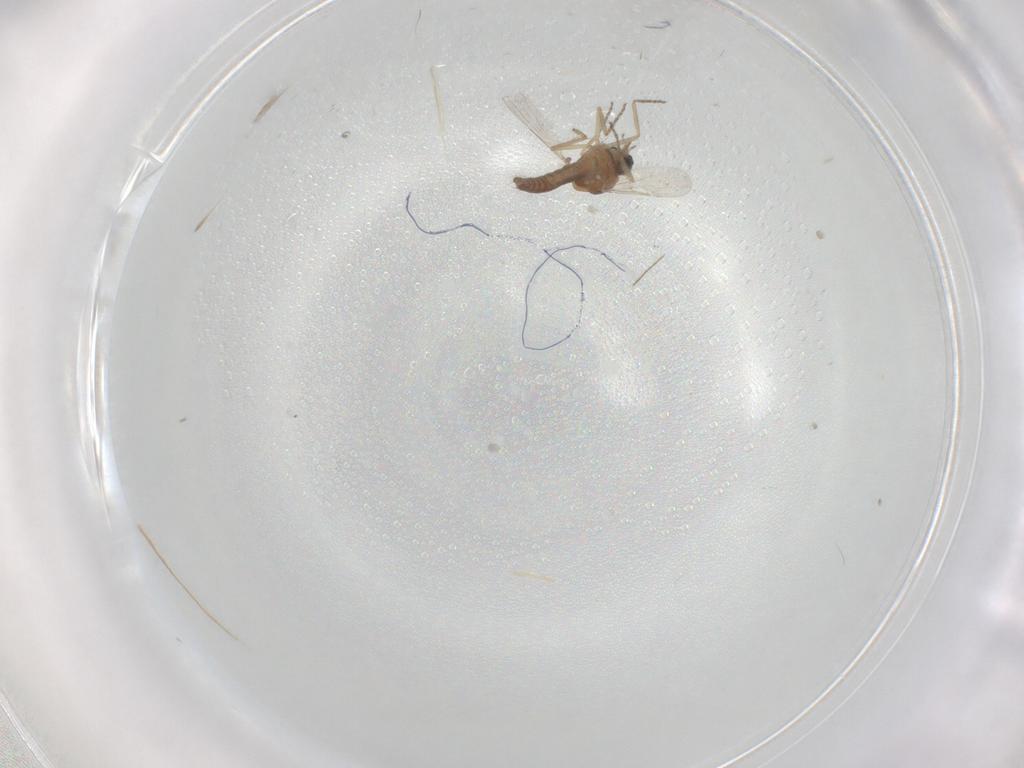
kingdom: Animalia
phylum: Arthropoda
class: Insecta
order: Diptera
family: Ceratopogonidae
